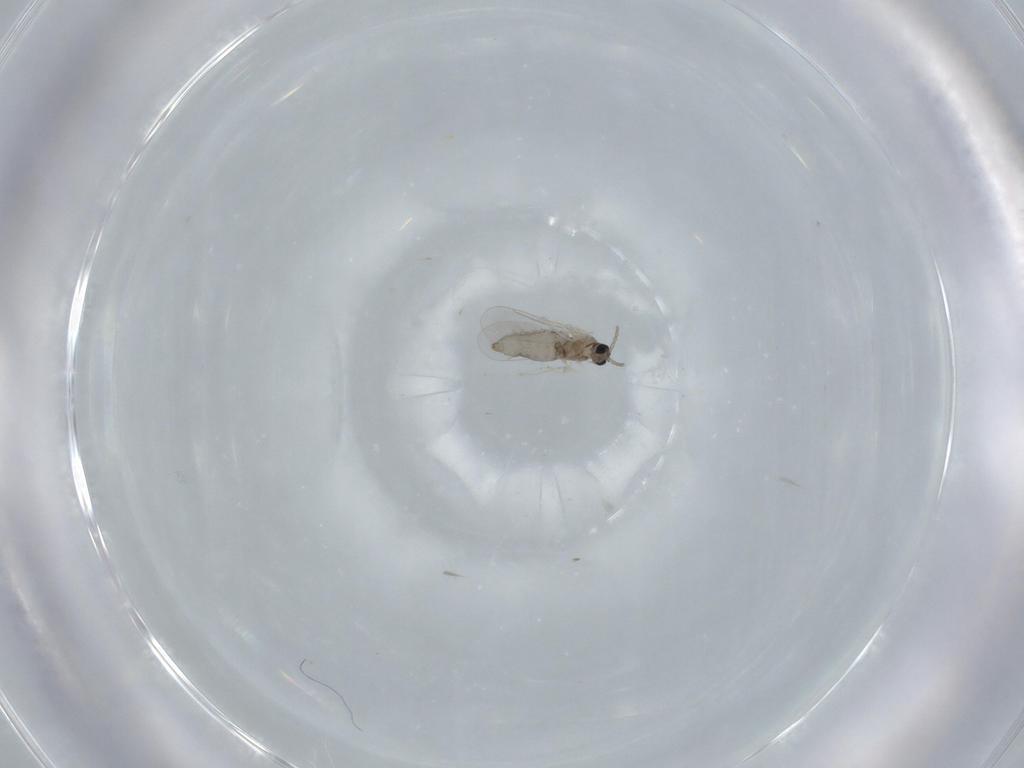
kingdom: Animalia
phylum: Arthropoda
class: Insecta
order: Diptera
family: Cecidomyiidae
